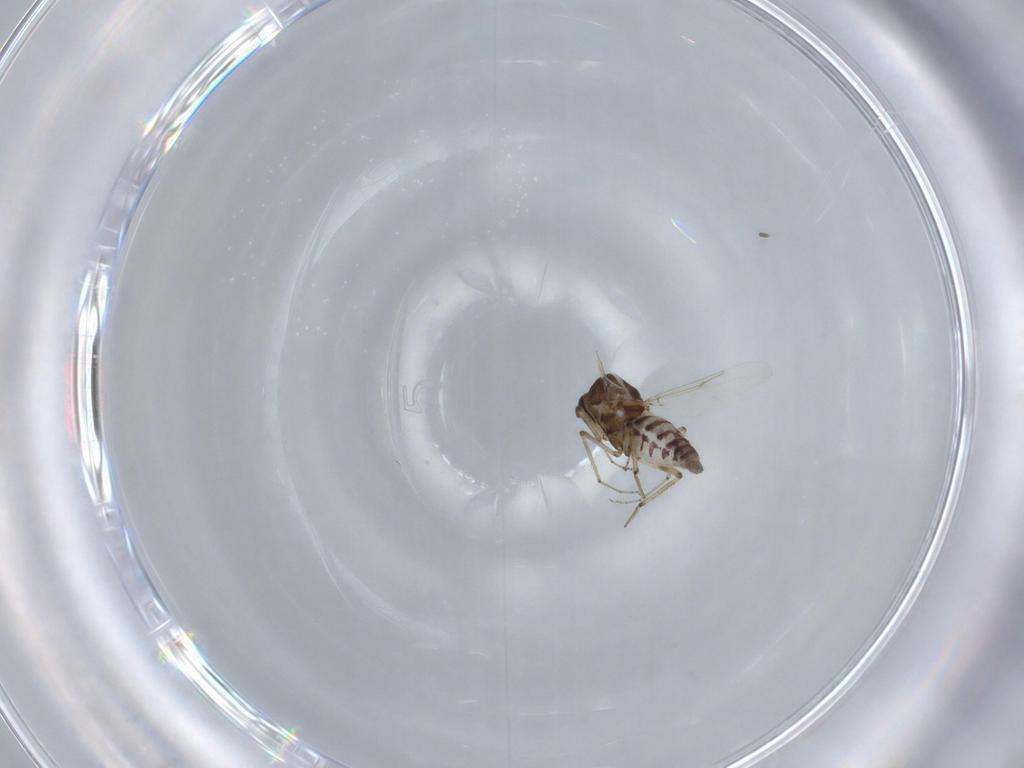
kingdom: Animalia
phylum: Arthropoda
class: Insecta
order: Diptera
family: Ceratopogonidae
